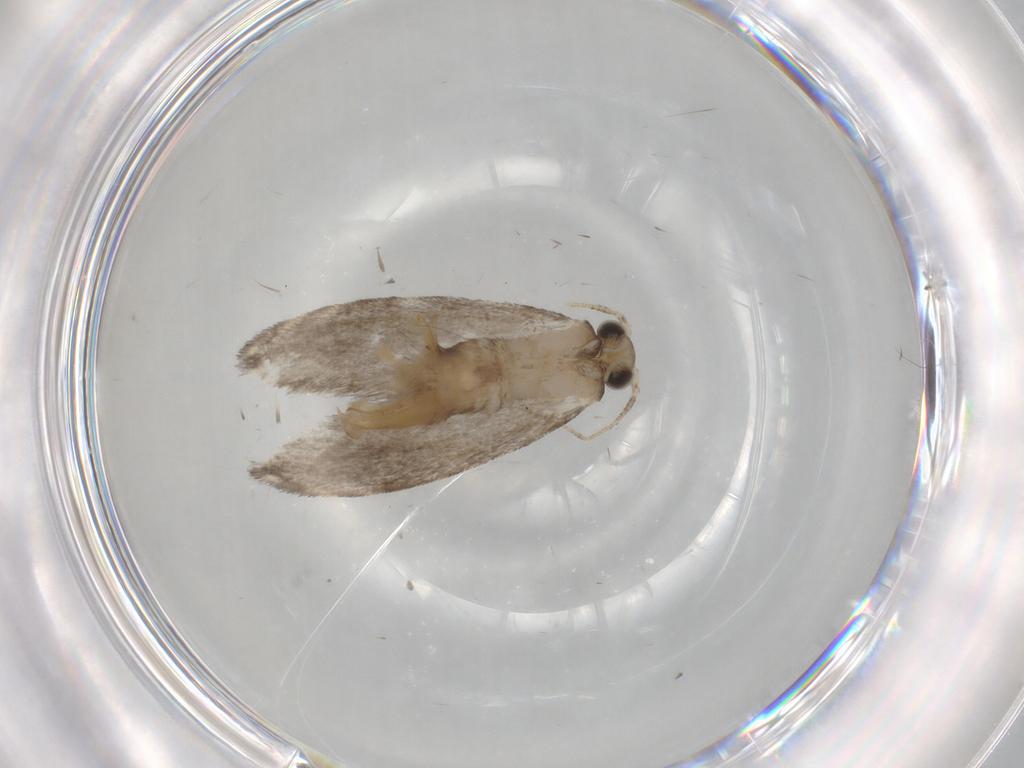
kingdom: Animalia
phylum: Arthropoda
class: Insecta
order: Lepidoptera
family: Tineidae
